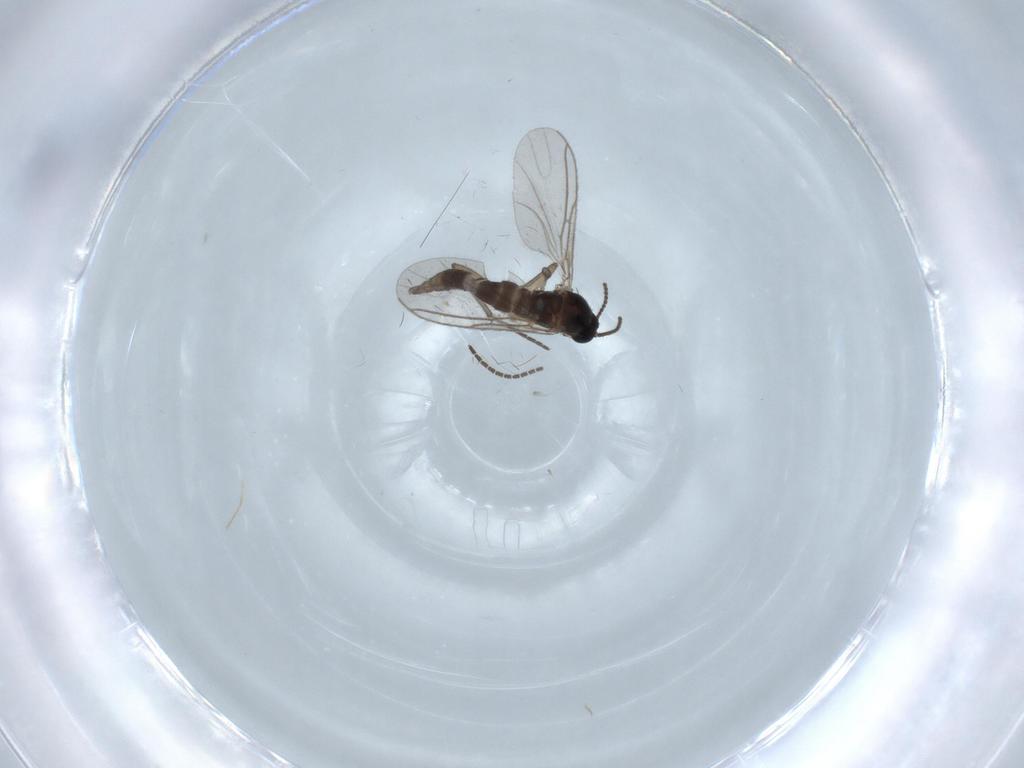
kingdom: Animalia
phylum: Arthropoda
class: Insecta
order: Diptera
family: Sciaridae
